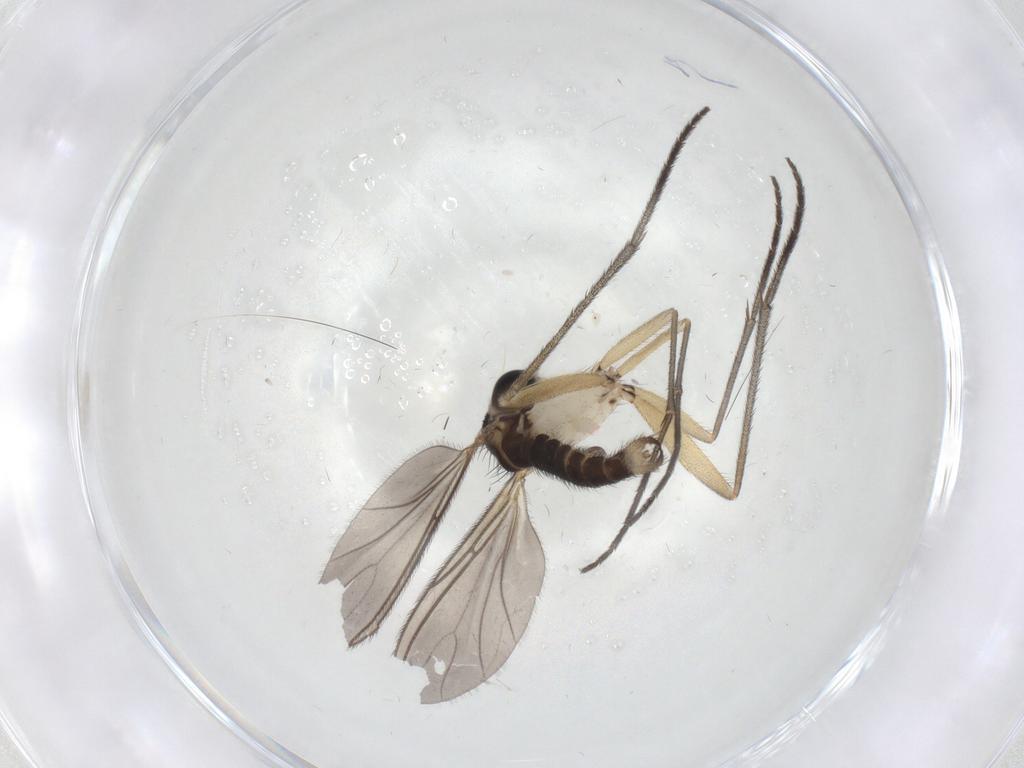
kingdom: Animalia
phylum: Arthropoda
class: Insecta
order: Diptera
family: Sciaridae
